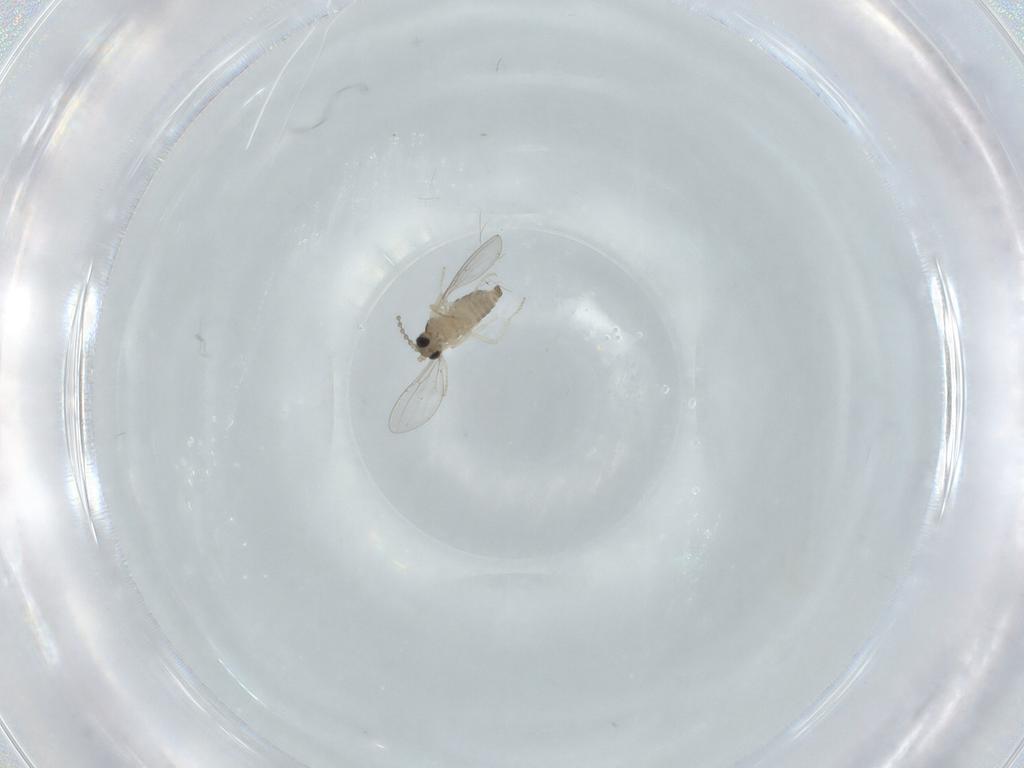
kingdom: Animalia
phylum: Arthropoda
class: Insecta
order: Diptera
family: Cecidomyiidae
